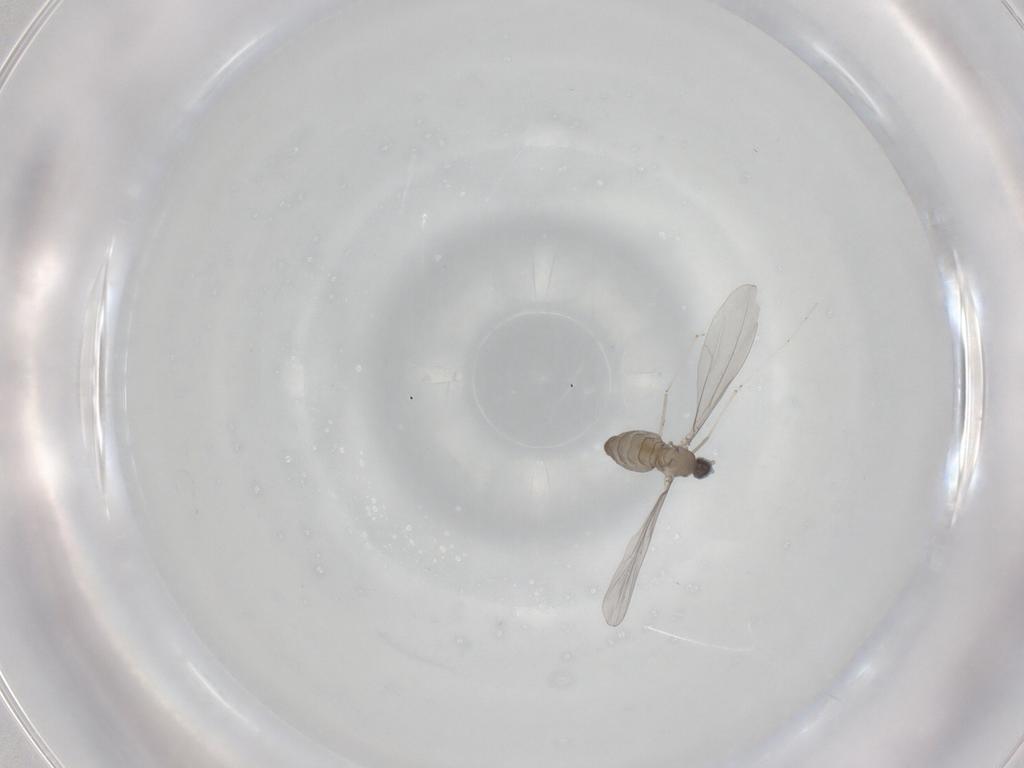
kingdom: Animalia
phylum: Arthropoda
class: Insecta
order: Diptera
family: Cecidomyiidae
